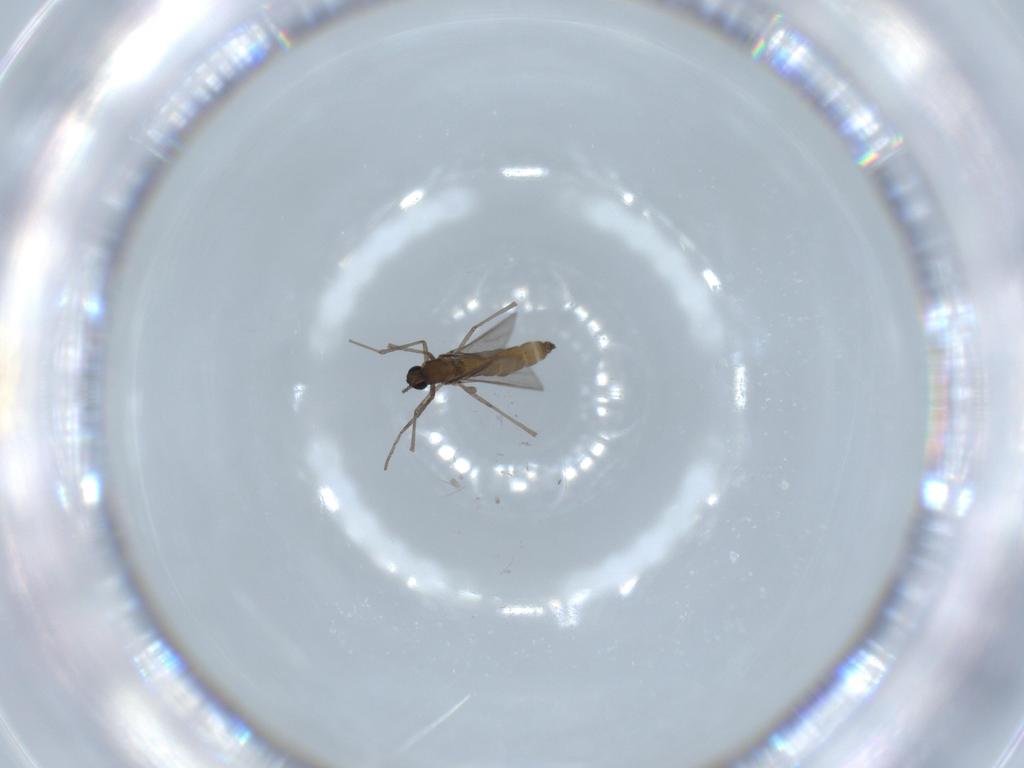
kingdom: Animalia
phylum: Arthropoda
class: Insecta
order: Diptera
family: Cecidomyiidae
